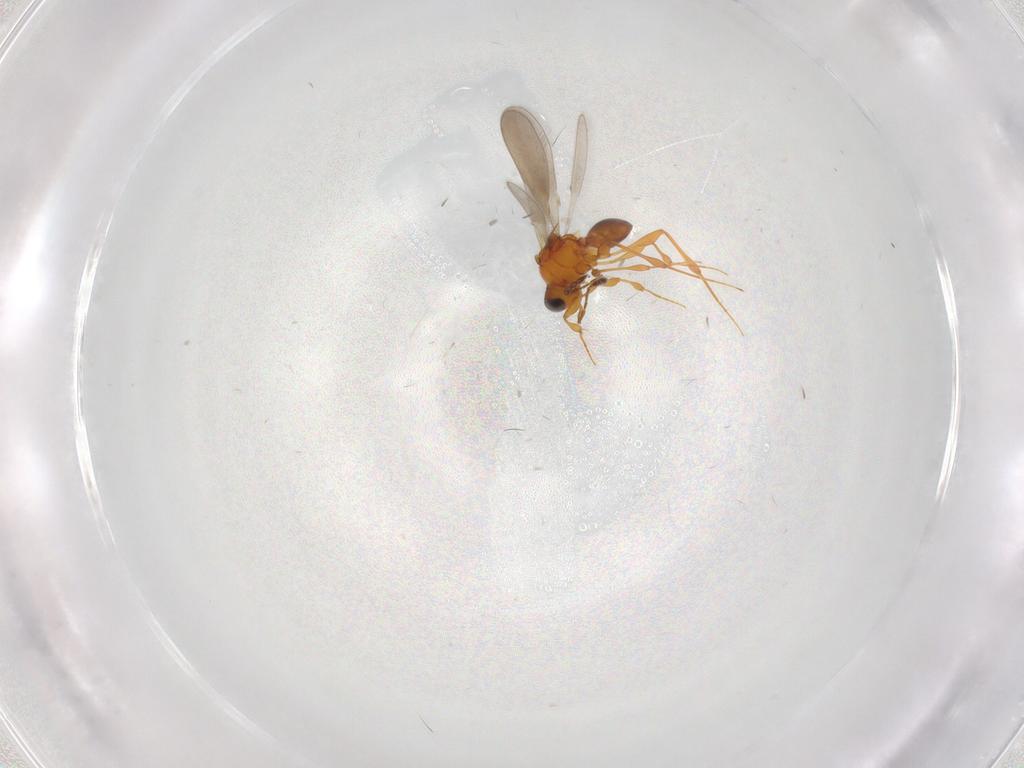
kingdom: Animalia
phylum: Arthropoda
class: Insecta
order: Hymenoptera
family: Platygastridae
